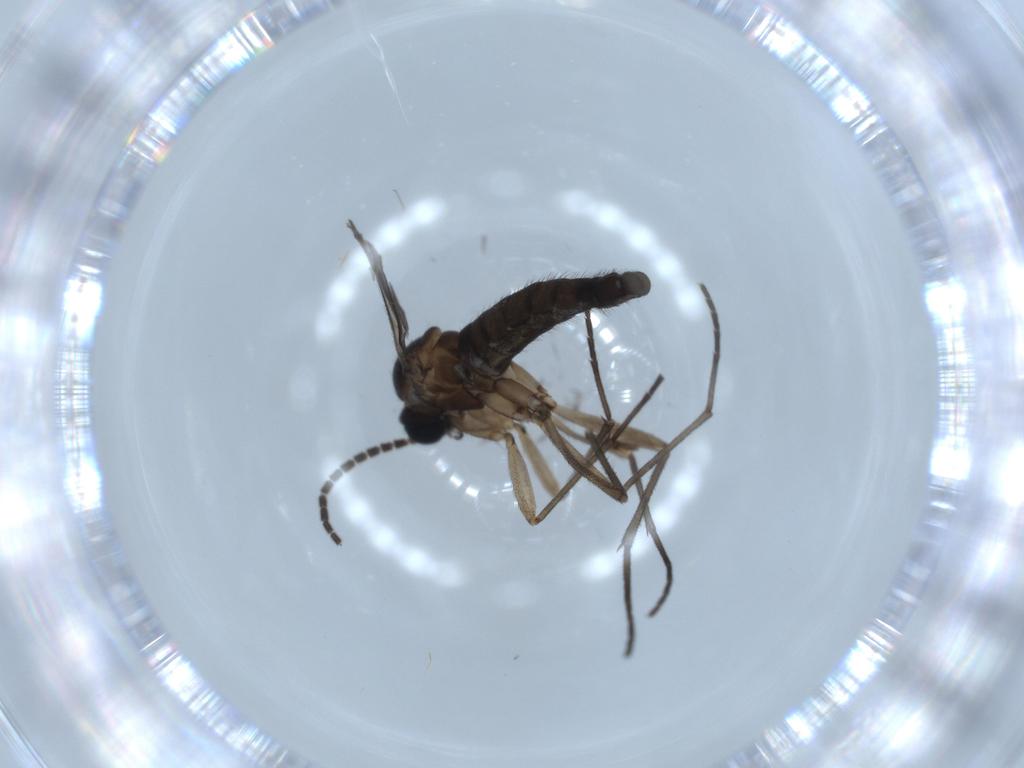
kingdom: Animalia
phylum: Arthropoda
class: Insecta
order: Diptera
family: Sciaridae
